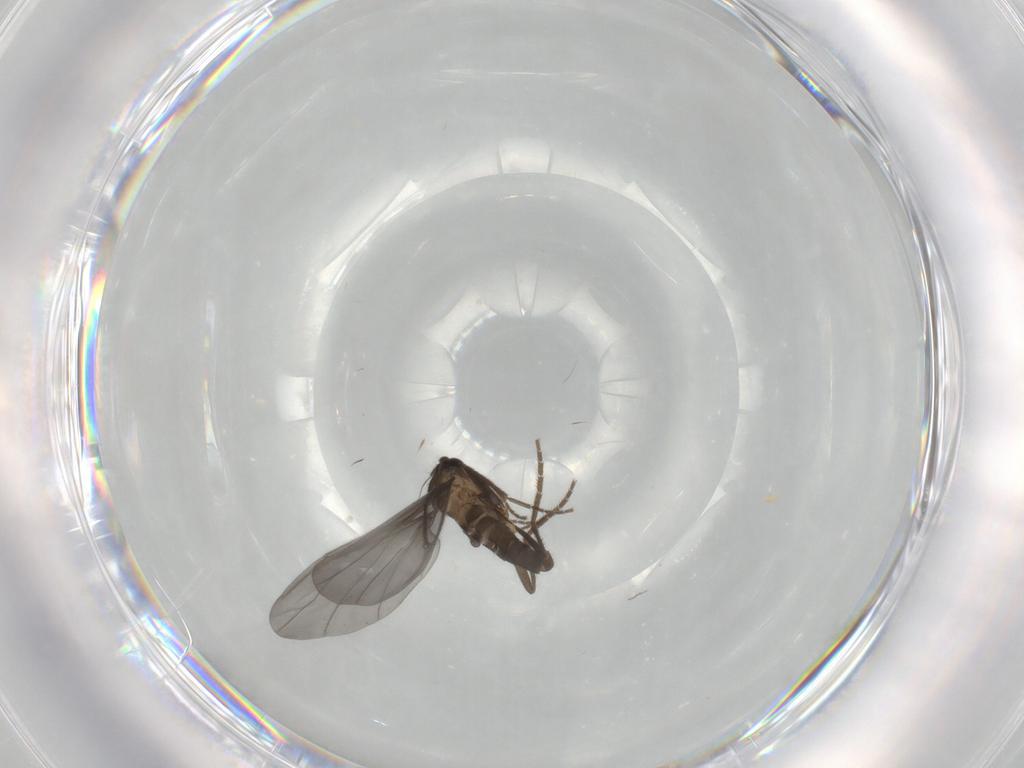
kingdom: Animalia
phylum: Arthropoda
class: Insecta
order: Diptera
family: Phoridae
